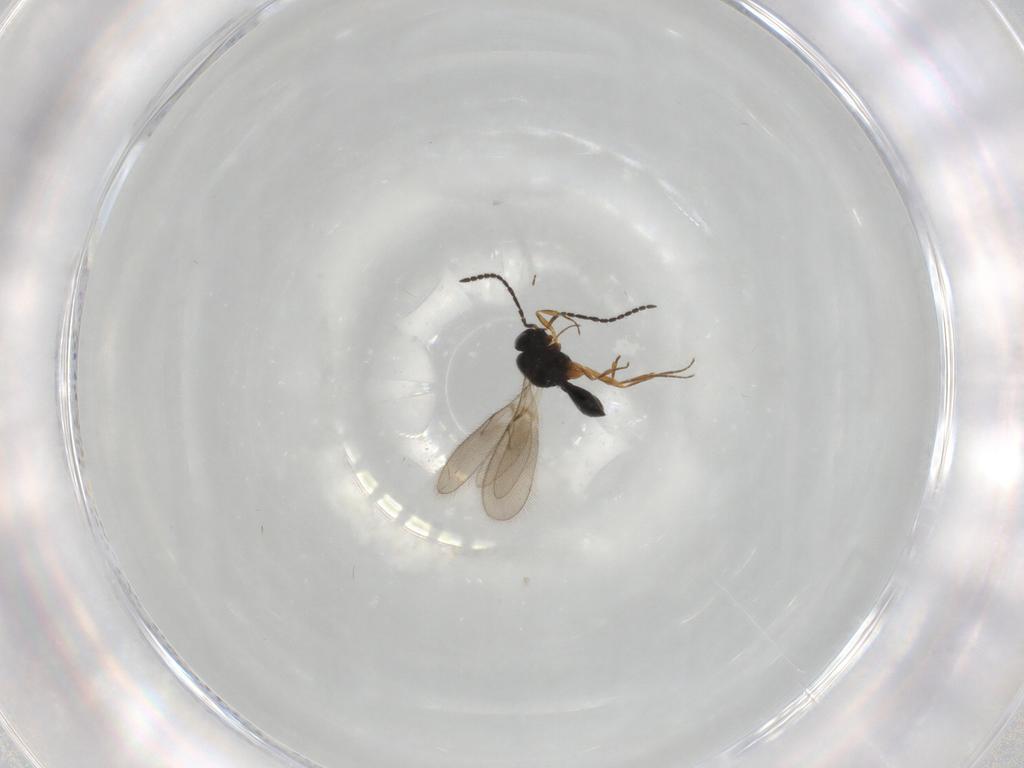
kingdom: Animalia
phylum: Arthropoda
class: Insecta
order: Hymenoptera
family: Scelionidae
